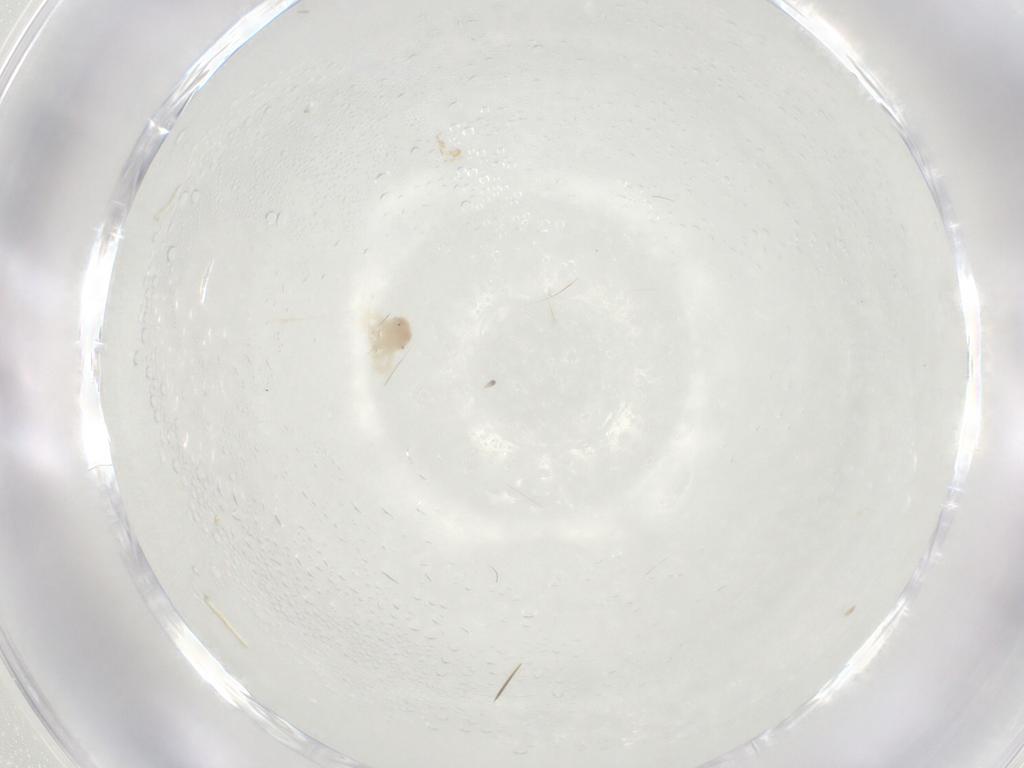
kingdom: Animalia
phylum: Arthropoda
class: Arachnida
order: Trombidiformes
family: Anystidae
